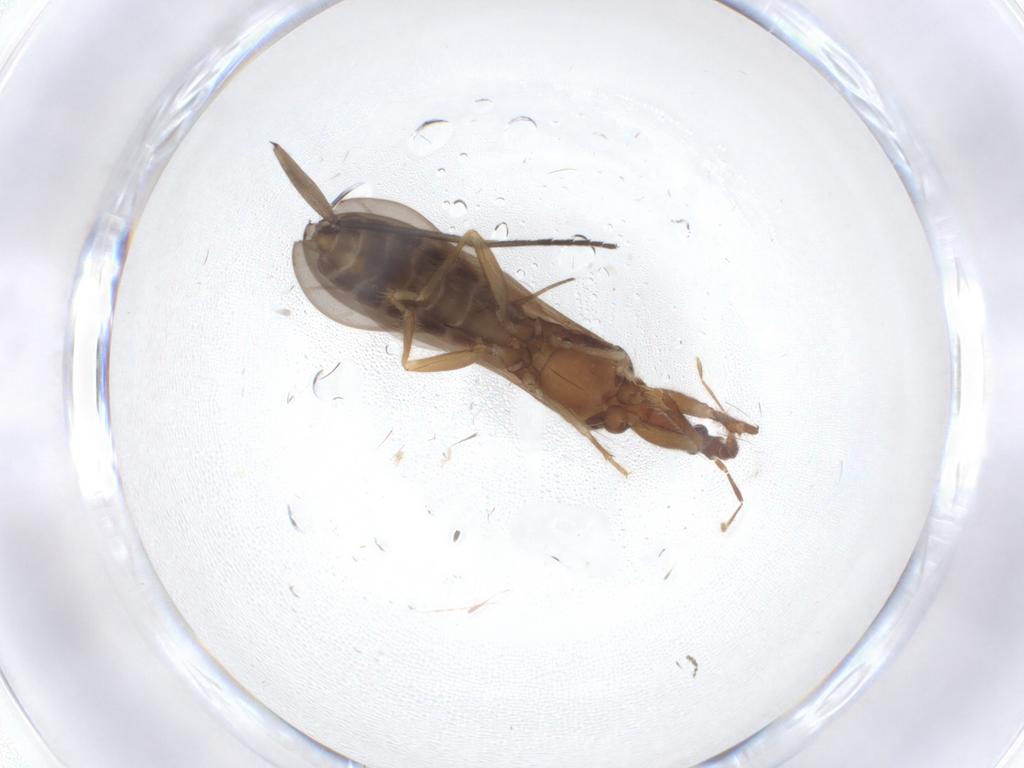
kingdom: Animalia
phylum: Arthropoda
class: Insecta
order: Hemiptera
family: Enicocephalidae
